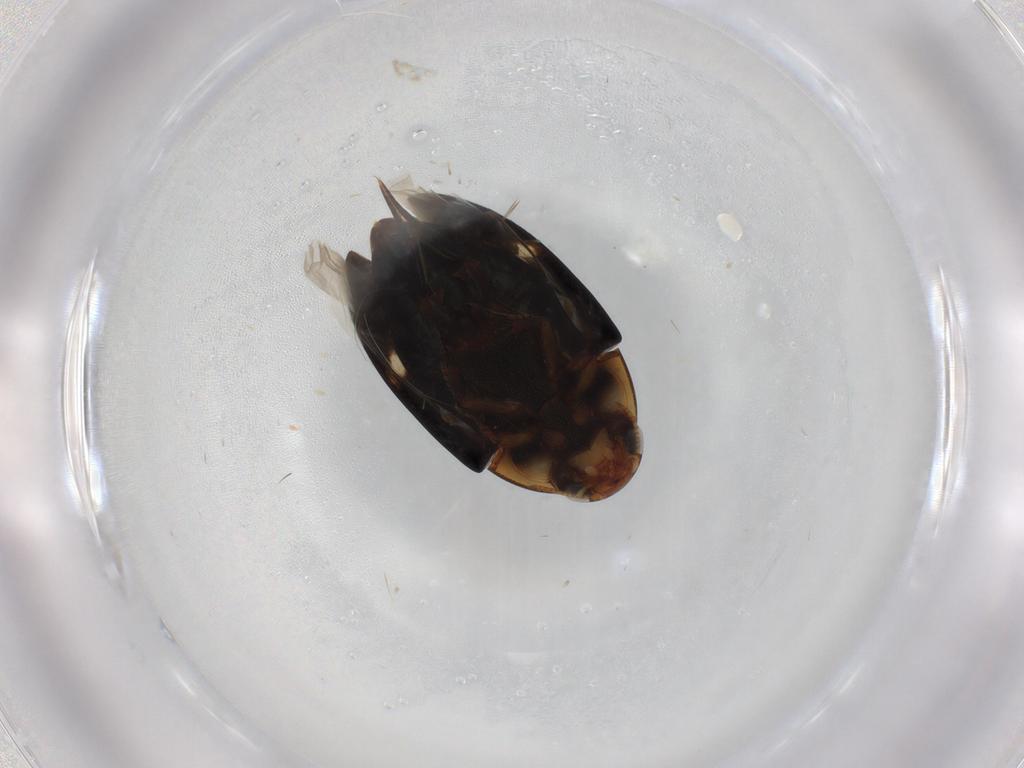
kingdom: Animalia
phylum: Arthropoda
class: Insecta
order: Coleoptera
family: Noteridae
